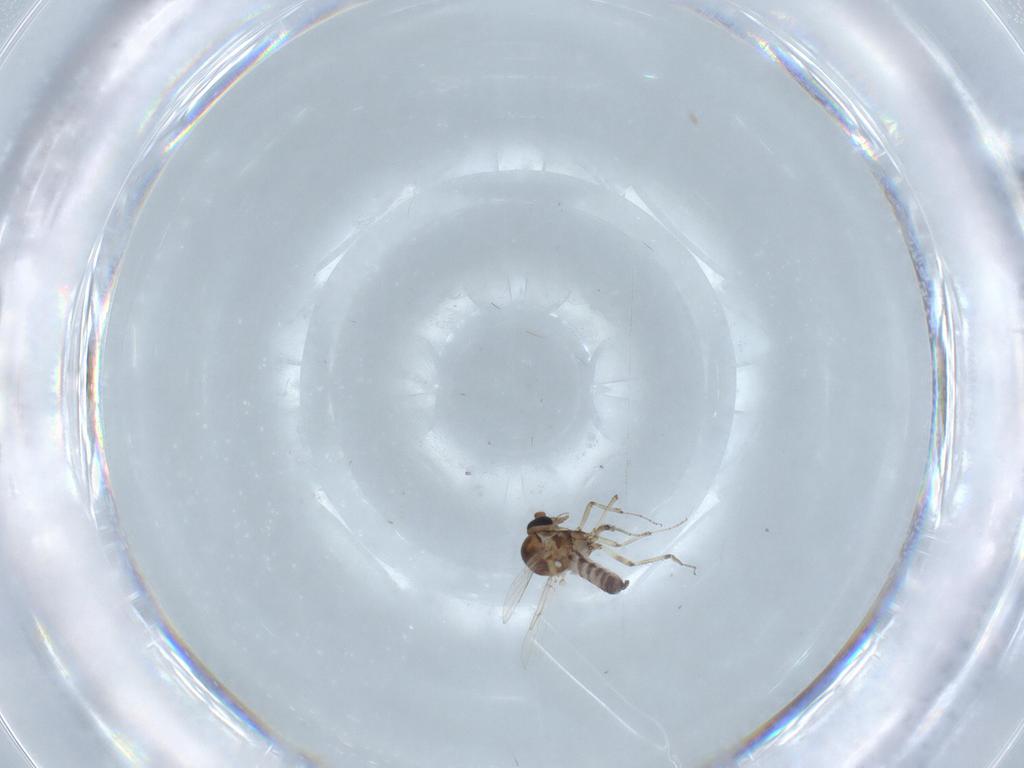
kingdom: Animalia
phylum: Arthropoda
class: Insecta
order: Diptera
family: Ceratopogonidae
